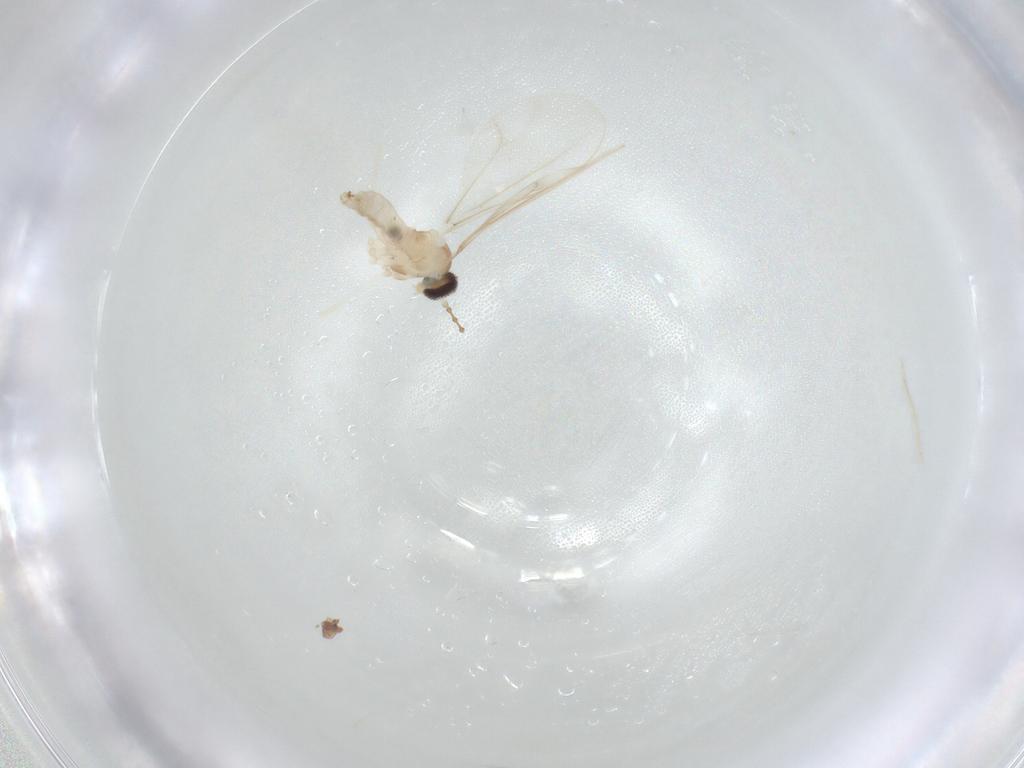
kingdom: Animalia
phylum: Arthropoda
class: Insecta
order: Diptera
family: Cecidomyiidae
